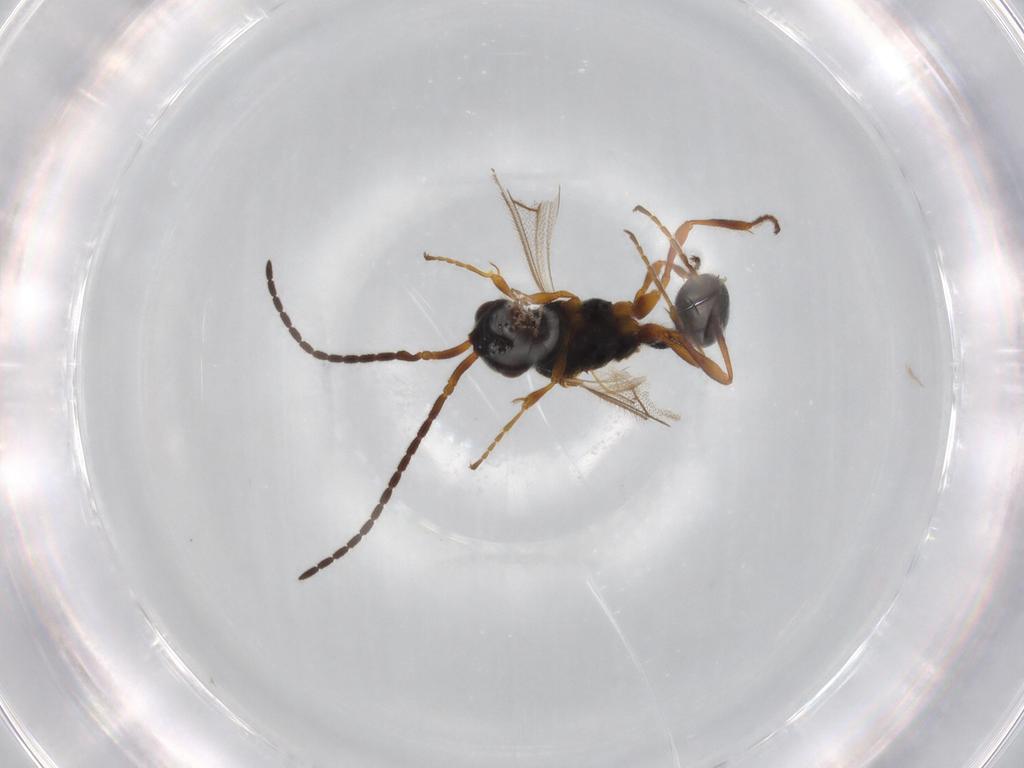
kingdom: Animalia
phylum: Arthropoda
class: Insecta
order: Hymenoptera
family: Diapriidae
